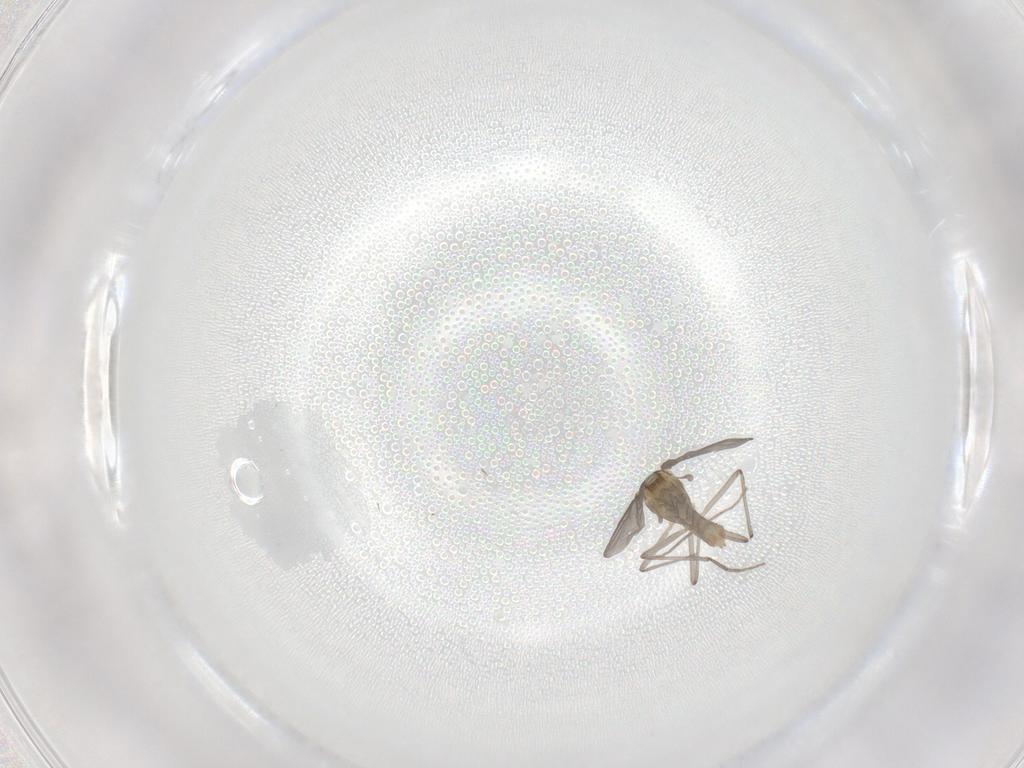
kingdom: Animalia
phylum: Arthropoda
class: Insecta
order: Diptera
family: Chironomidae
